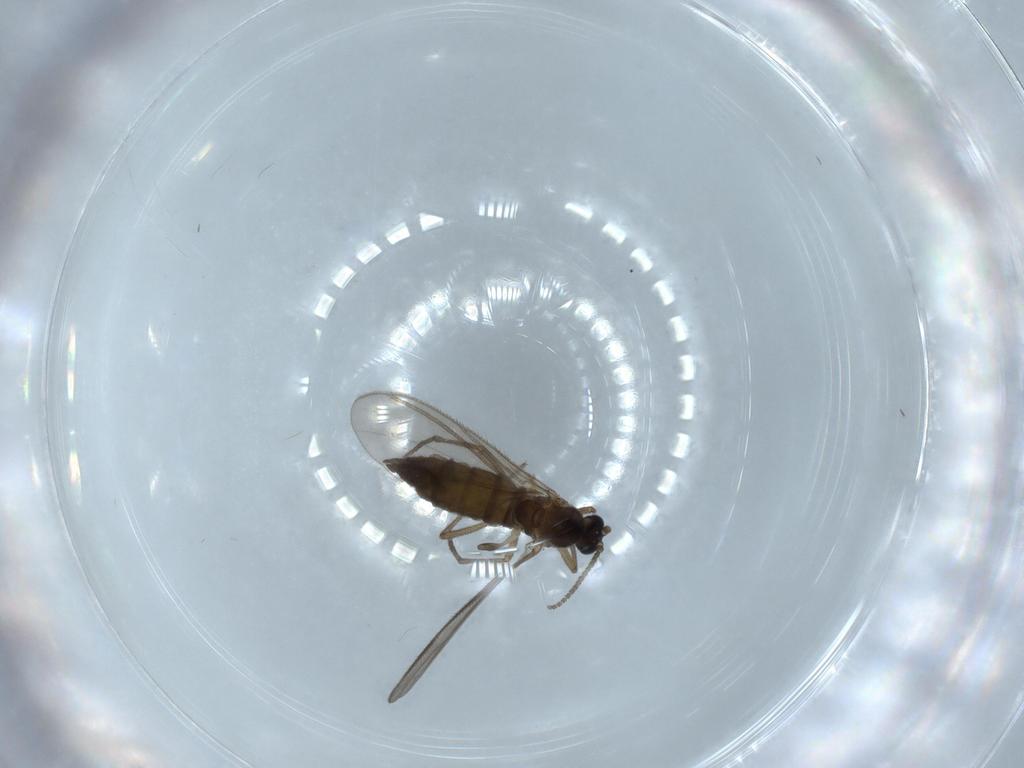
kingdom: Animalia
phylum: Arthropoda
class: Insecta
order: Diptera
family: Sciaridae
